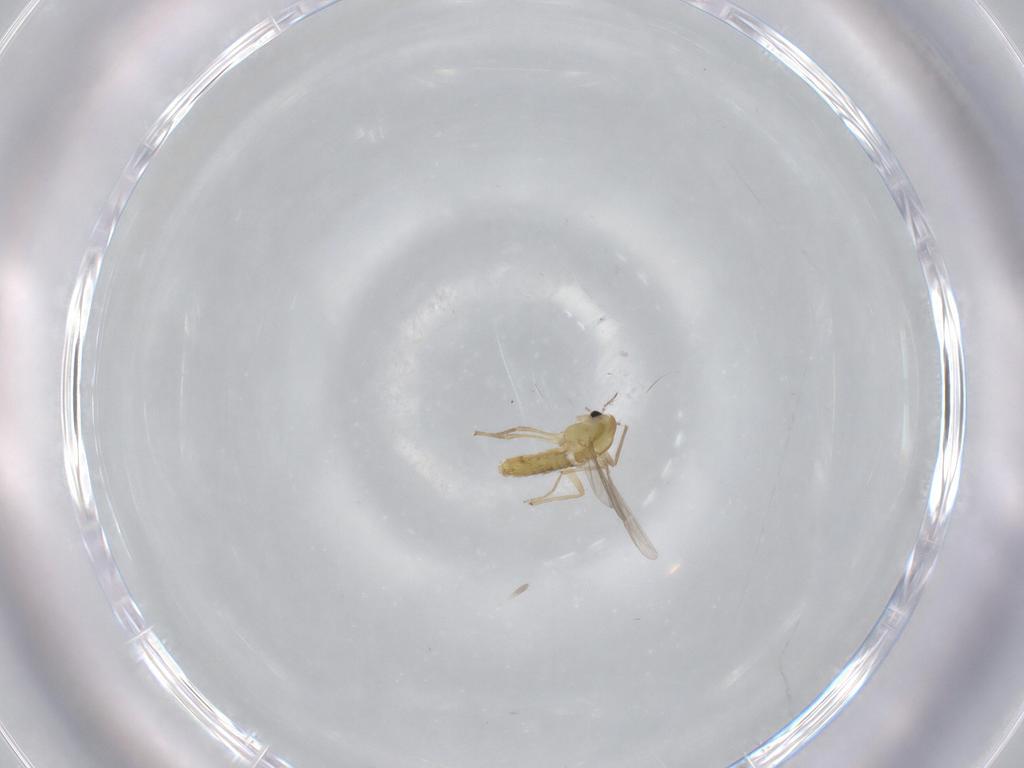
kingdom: Animalia
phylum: Arthropoda
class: Insecta
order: Diptera
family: Chironomidae
